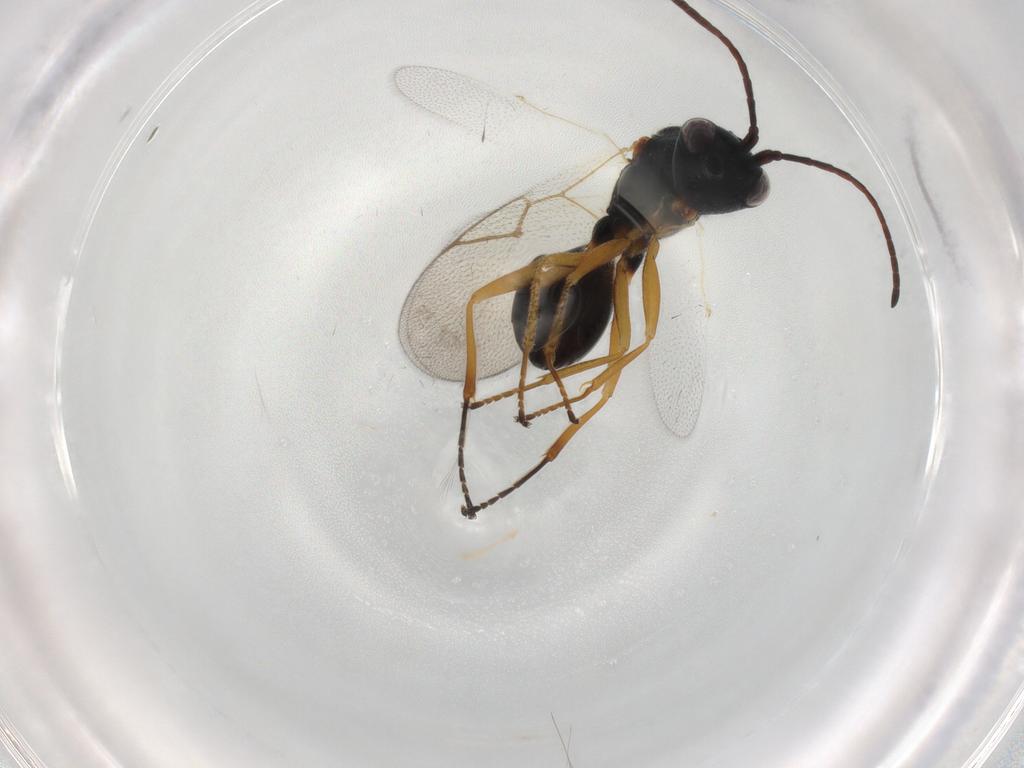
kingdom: Animalia
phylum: Arthropoda
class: Insecta
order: Hymenoptera
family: Figitidae
